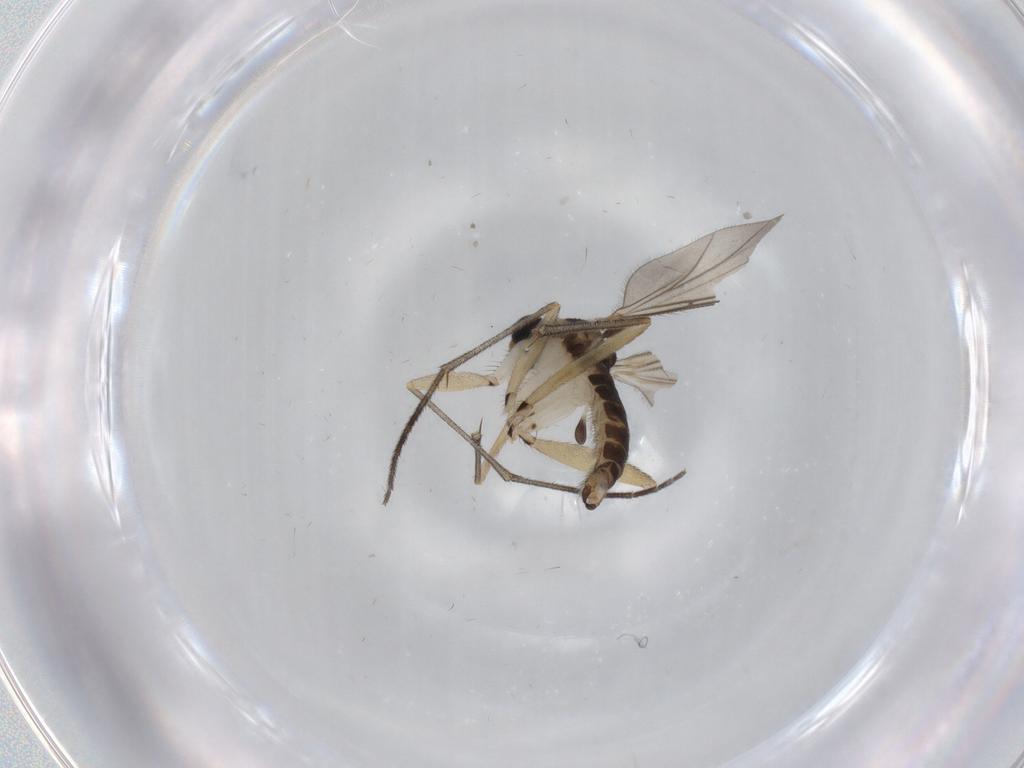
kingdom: Animalia
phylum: Arthropoda
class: Insecta
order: Diptera
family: Sciaridae
